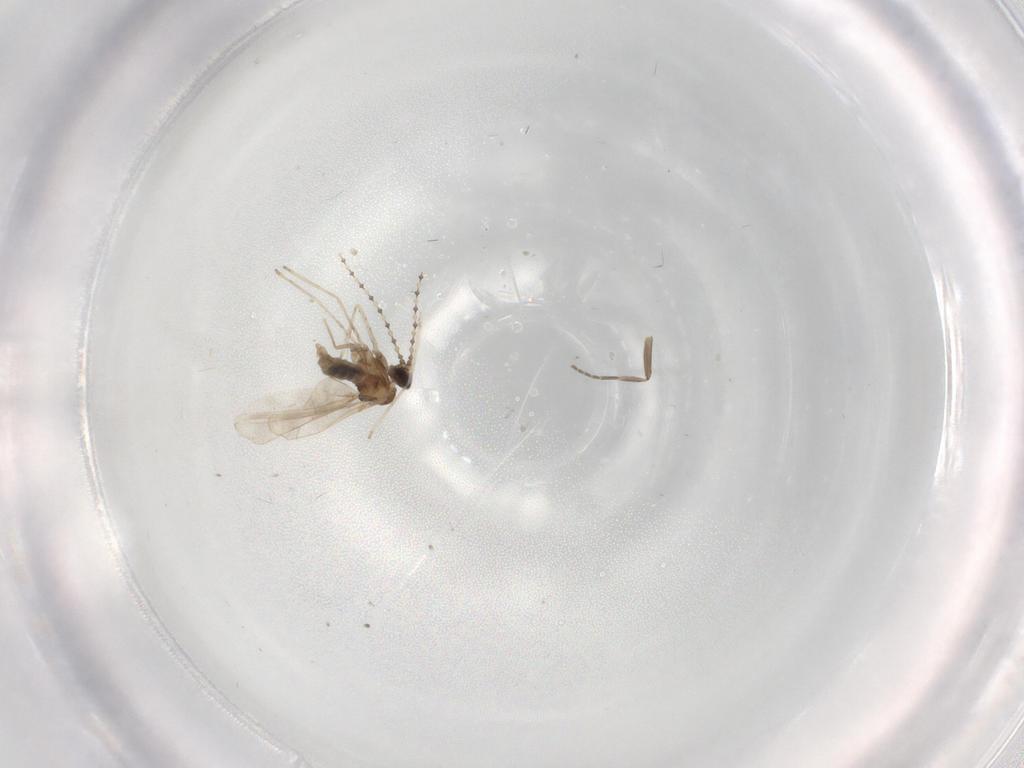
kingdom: Animalia
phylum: Arthropoda
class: Insecta
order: Diptera
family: Phoridae
